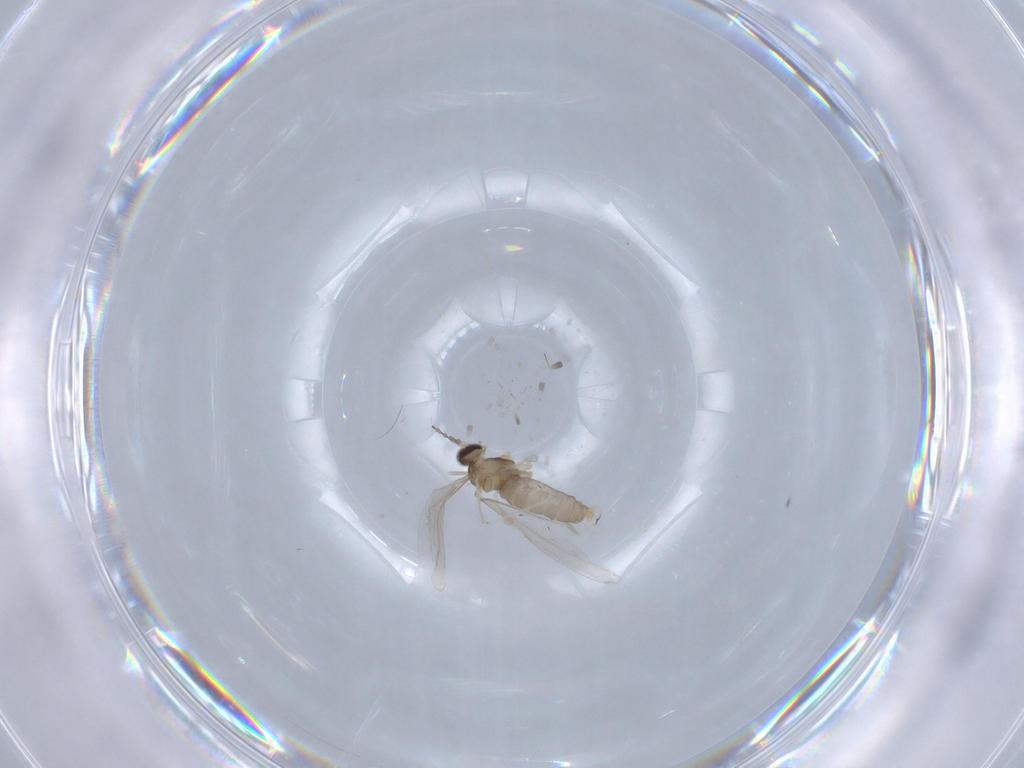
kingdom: Animalia
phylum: Arthropoda
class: Insecta
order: Diptera
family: Cecidomyiidae
